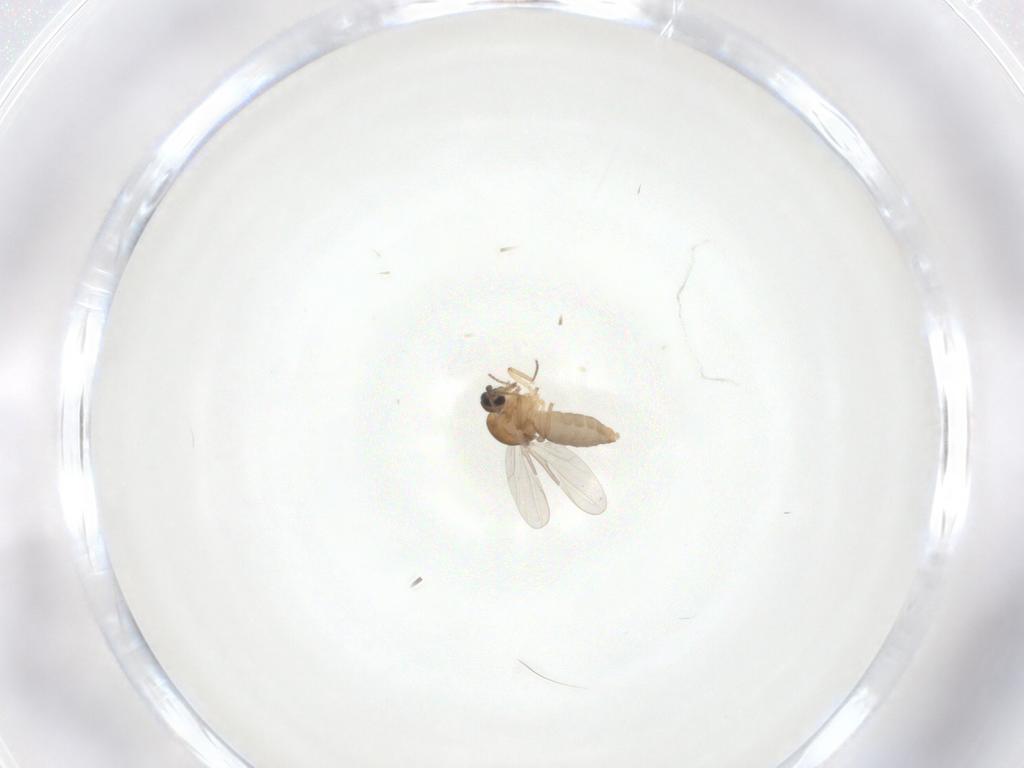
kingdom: Animalia
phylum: Arthropoda
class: Insecta
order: Diptera
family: Ceratopogonidae
